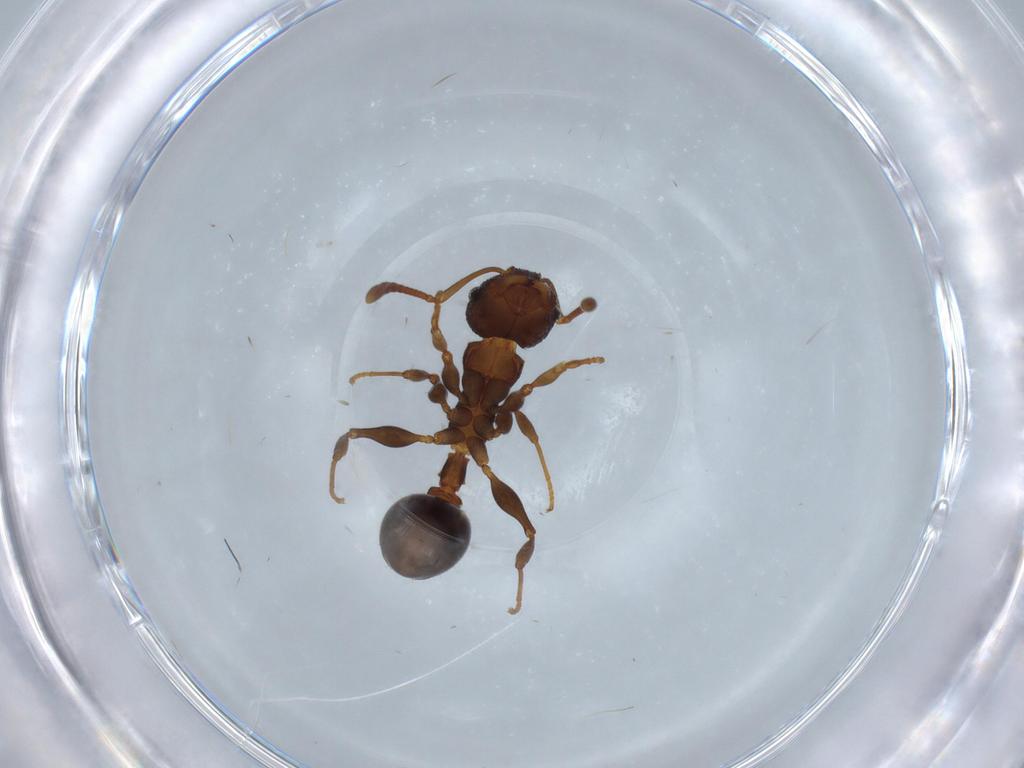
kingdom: Animalia
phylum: Arthropoda
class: Insecta
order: Hymenoptera
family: Formicidae
